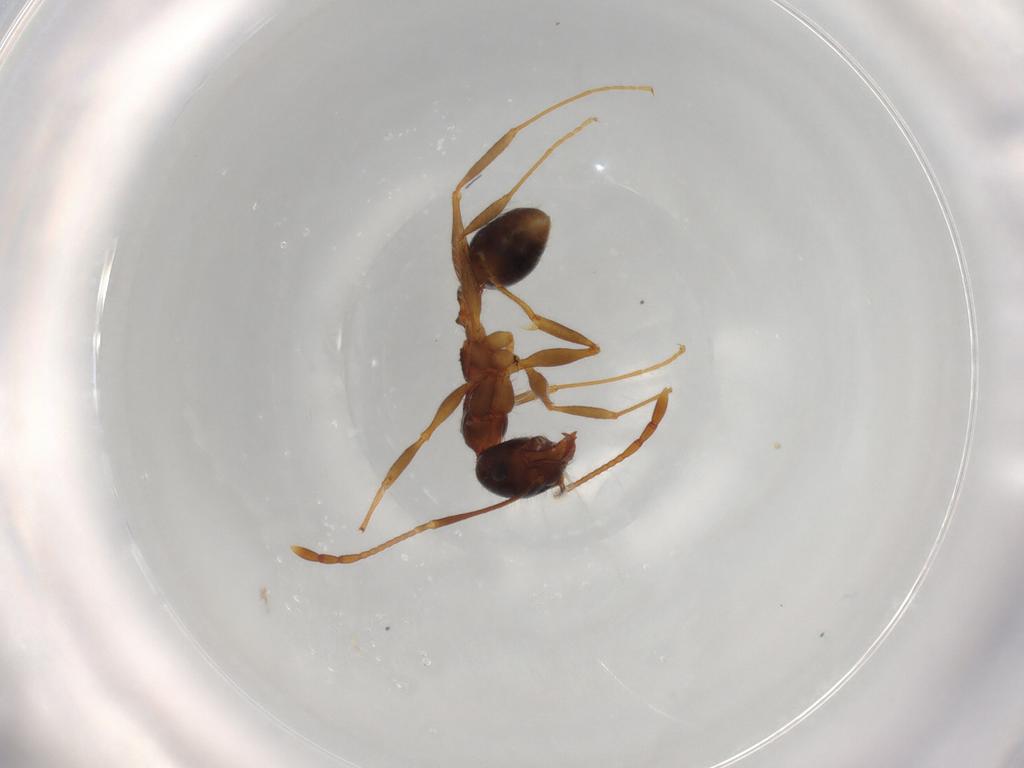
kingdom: Animalia
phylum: Arthropoda
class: Insecta
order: Hymenoptera
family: Formicidae
